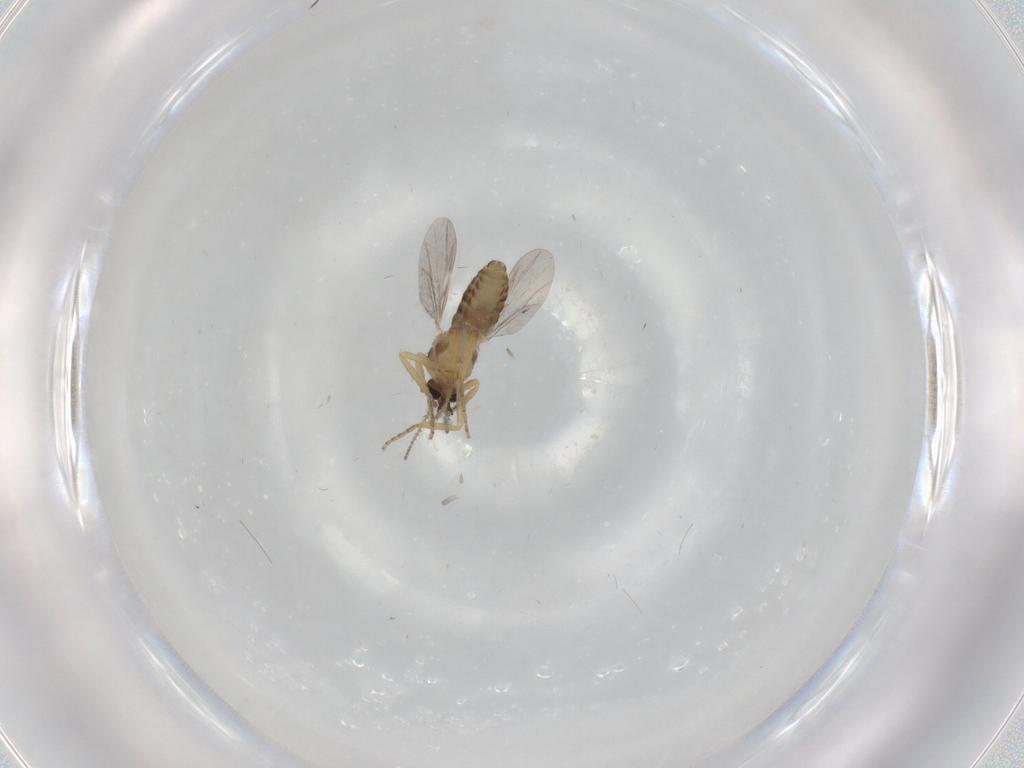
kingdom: Animalia
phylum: Arthropoda
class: Insecta
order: Diptera
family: Ceratopogonidae
